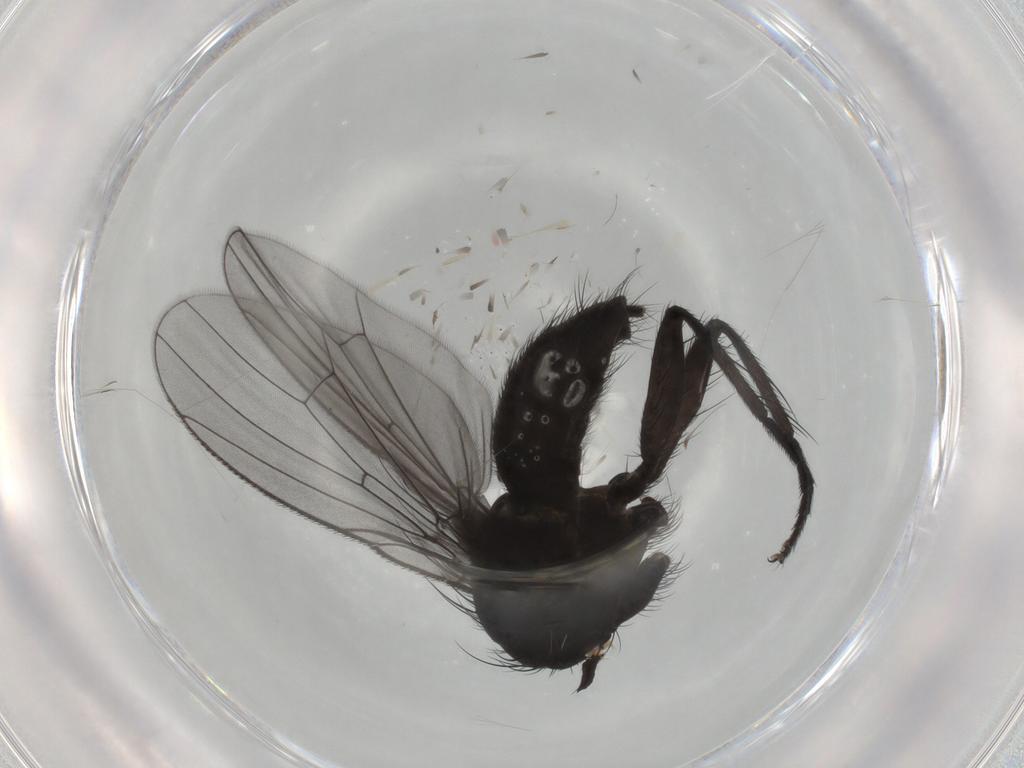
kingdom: Animalia
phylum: Arthropoda
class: Insecta
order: Diptera
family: Muscidae
